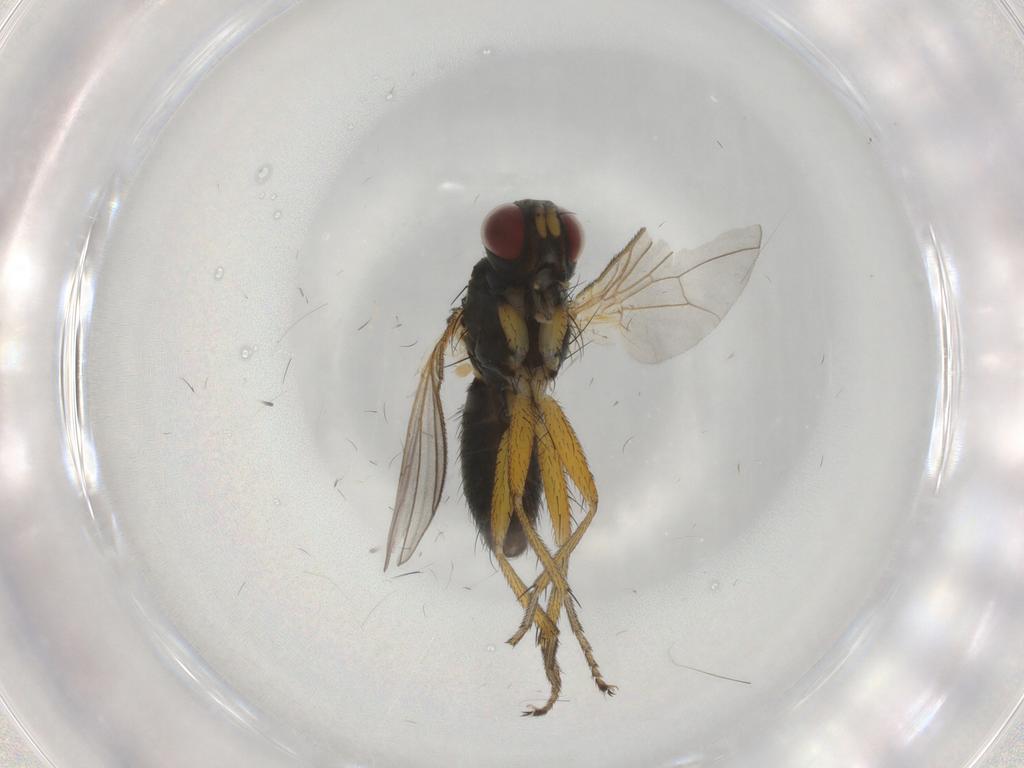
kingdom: Animalia
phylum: Arthropoda
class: Insecta
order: Diptera
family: Muscidae
